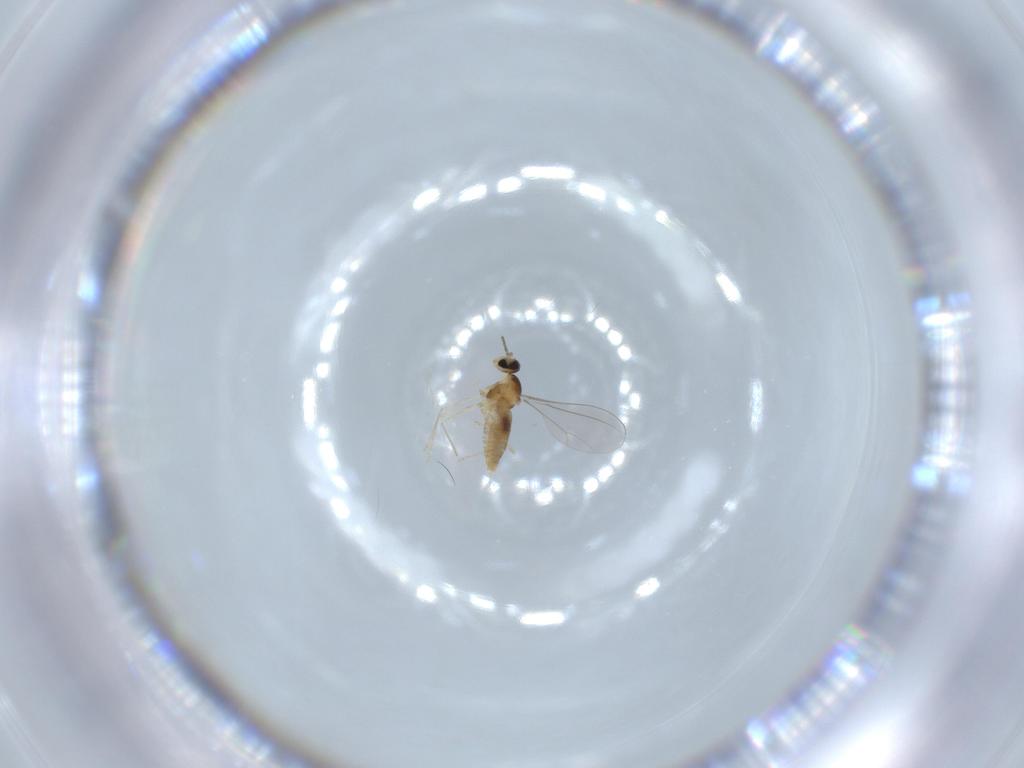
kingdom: Animalia
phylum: Arthropoda
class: Insecta
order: Diptera
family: Cecidomyiidae
